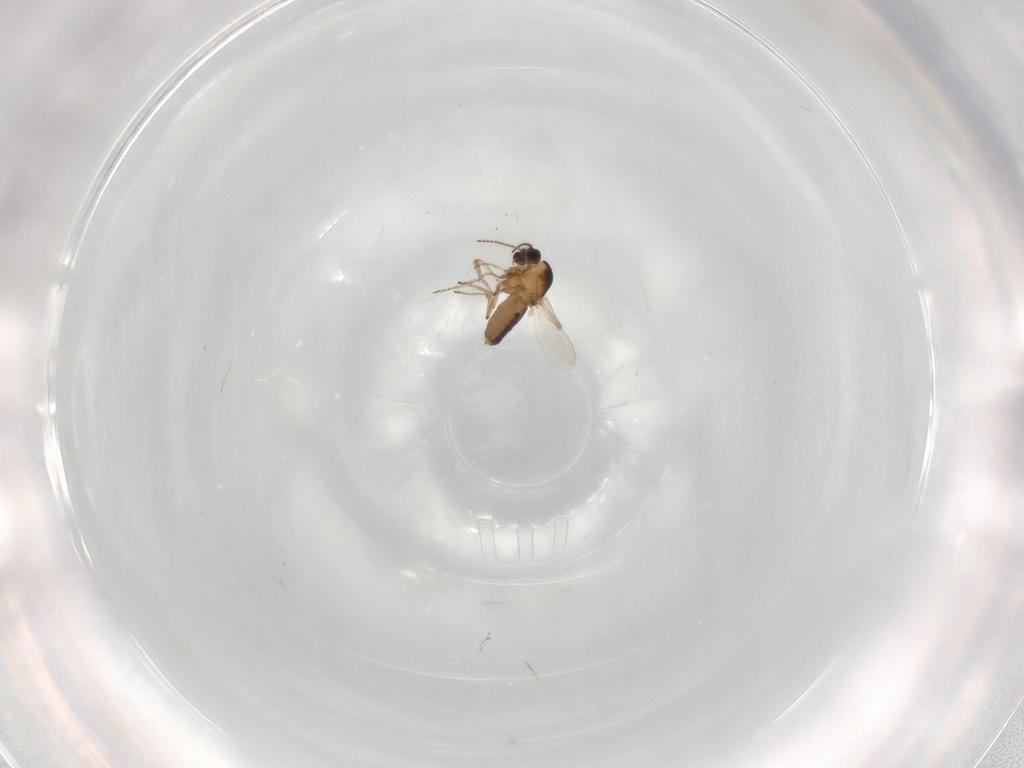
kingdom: Animalia
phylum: Arthropoda
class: Insecta
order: Diptera
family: Ceratopogonidae
